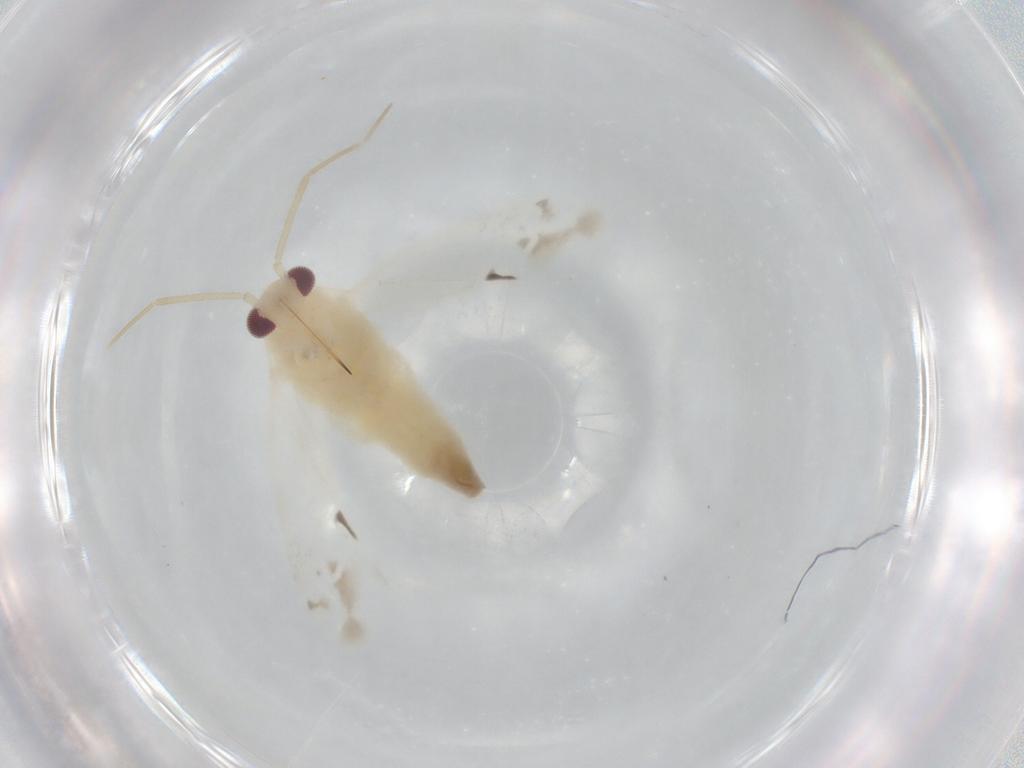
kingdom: Animalia
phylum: Arthropoda
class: Insecta
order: Hemiptera
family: Miridae
